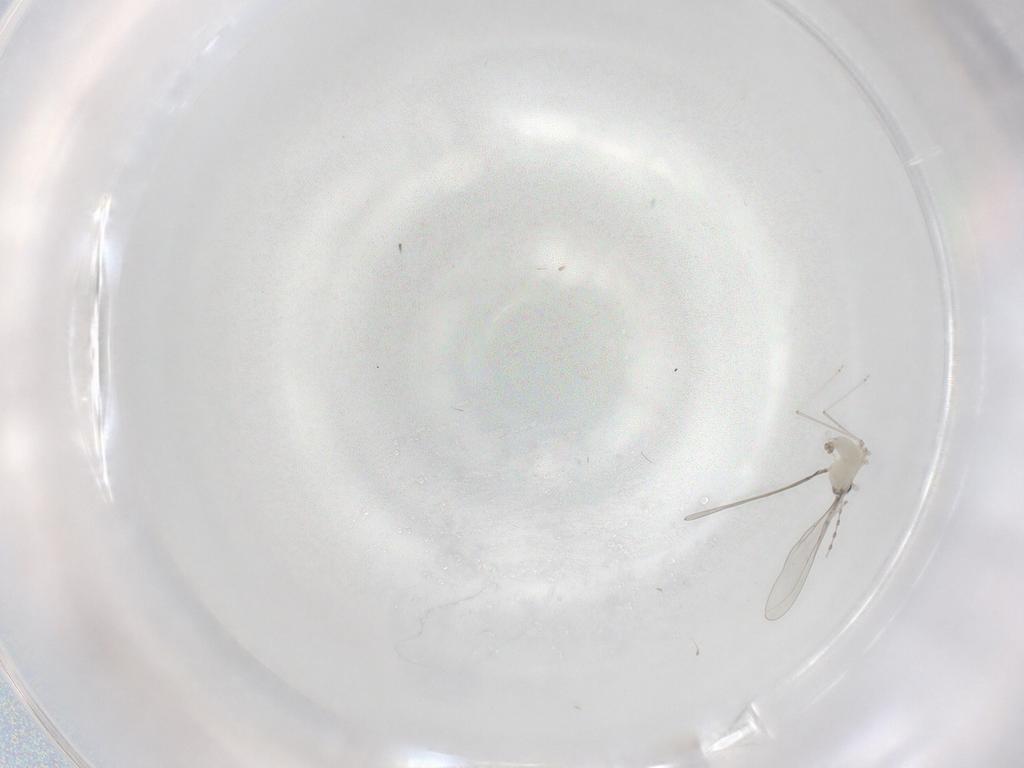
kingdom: Animalia
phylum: Arthropoda
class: Insecta
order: Diptera
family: Cecidomyiidae
